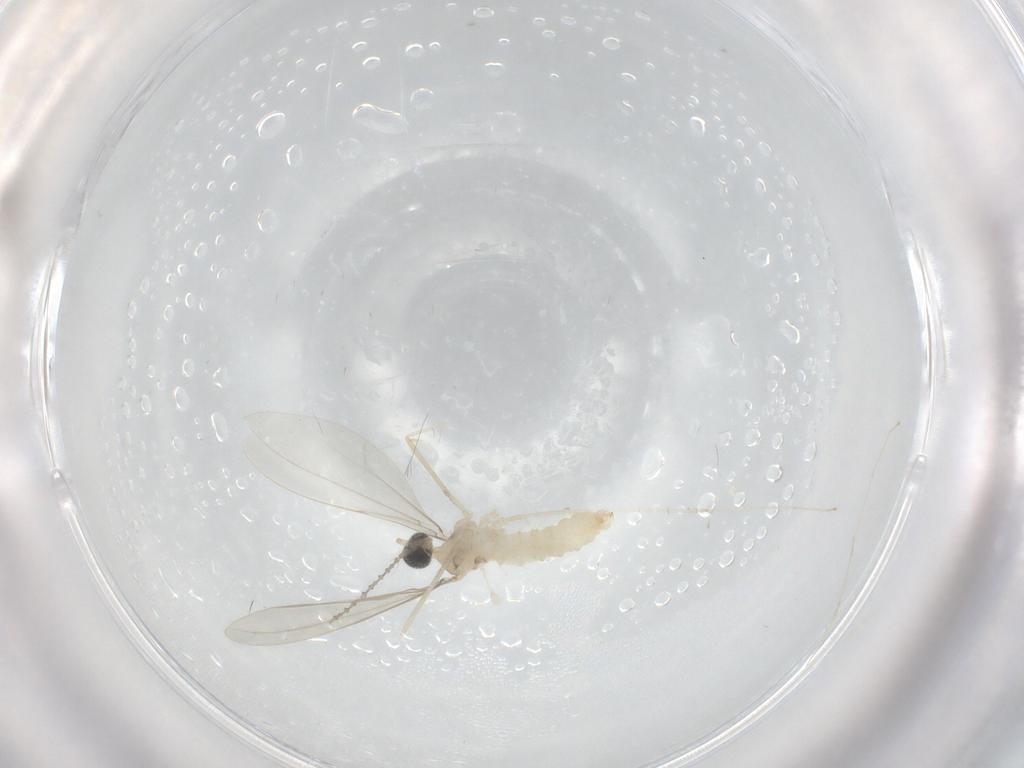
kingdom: Animalia
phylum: Arthropoda
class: Insecta
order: Diptera
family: Cecidomyiidae
